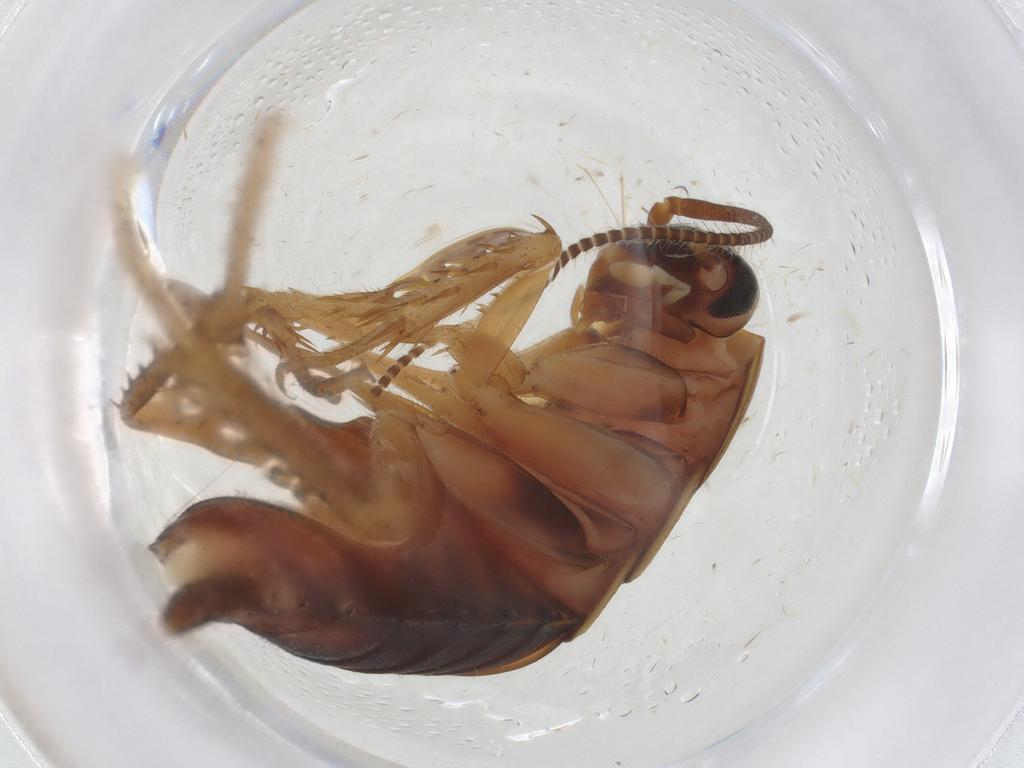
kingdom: Animalia
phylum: Arthropoda
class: Insecta
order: Blattodea
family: Ectobiidae
